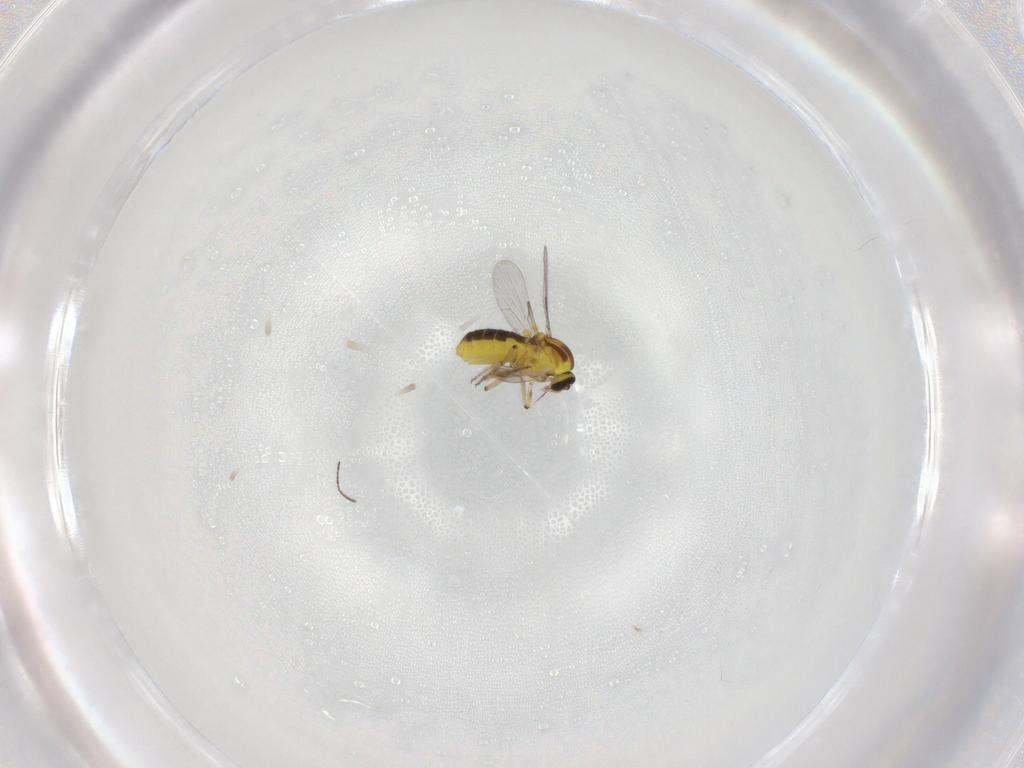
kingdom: Animalia
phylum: Arthropoda
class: Insecta
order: Diptera
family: Ceratopogonidae
